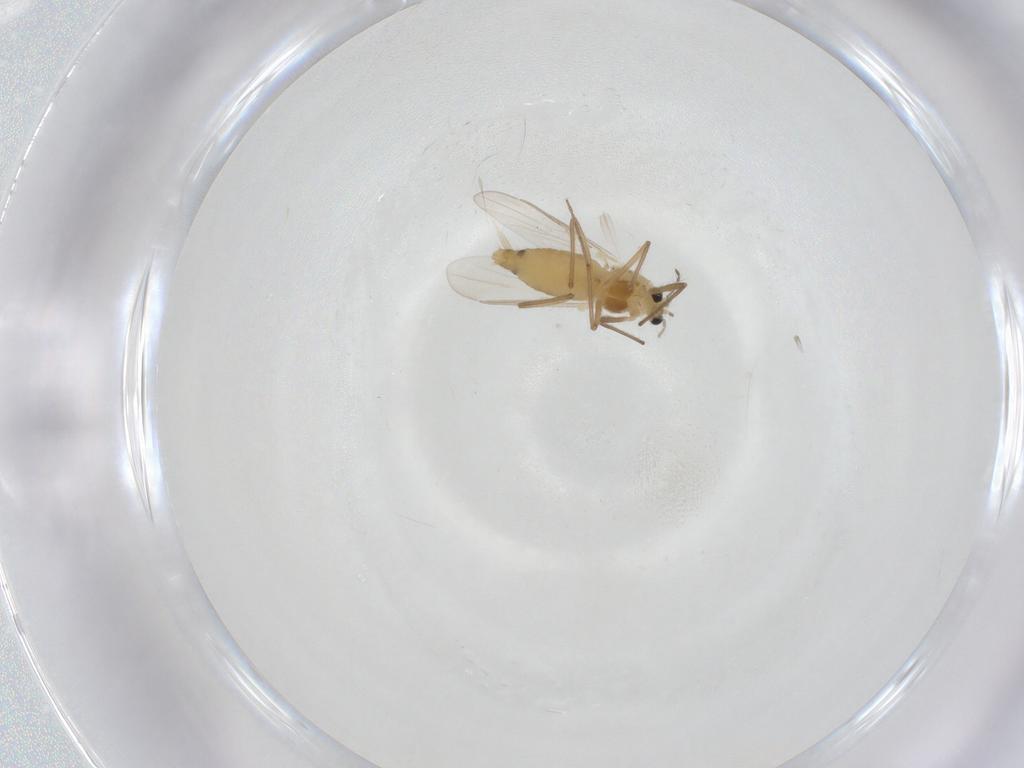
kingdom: Animalia
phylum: Arthropoda
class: Insecta
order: Diptera
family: Chironomidae
